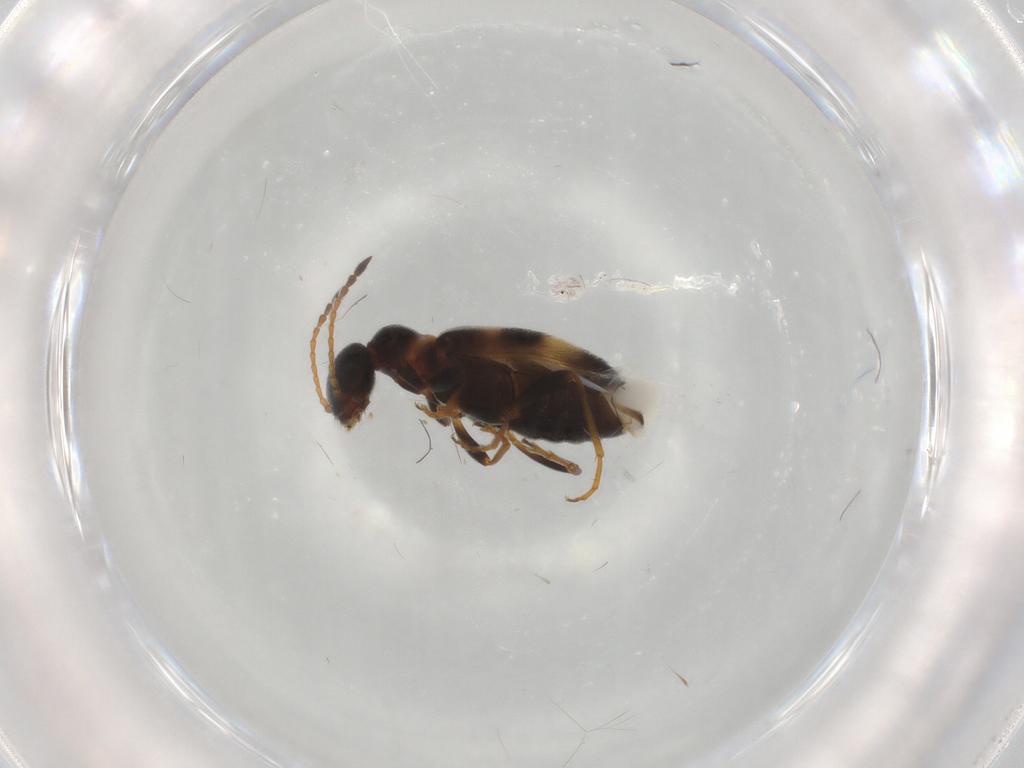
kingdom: Animalia
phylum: Arthropoda
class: Insecta
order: Coleoptera
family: Anthicidae
